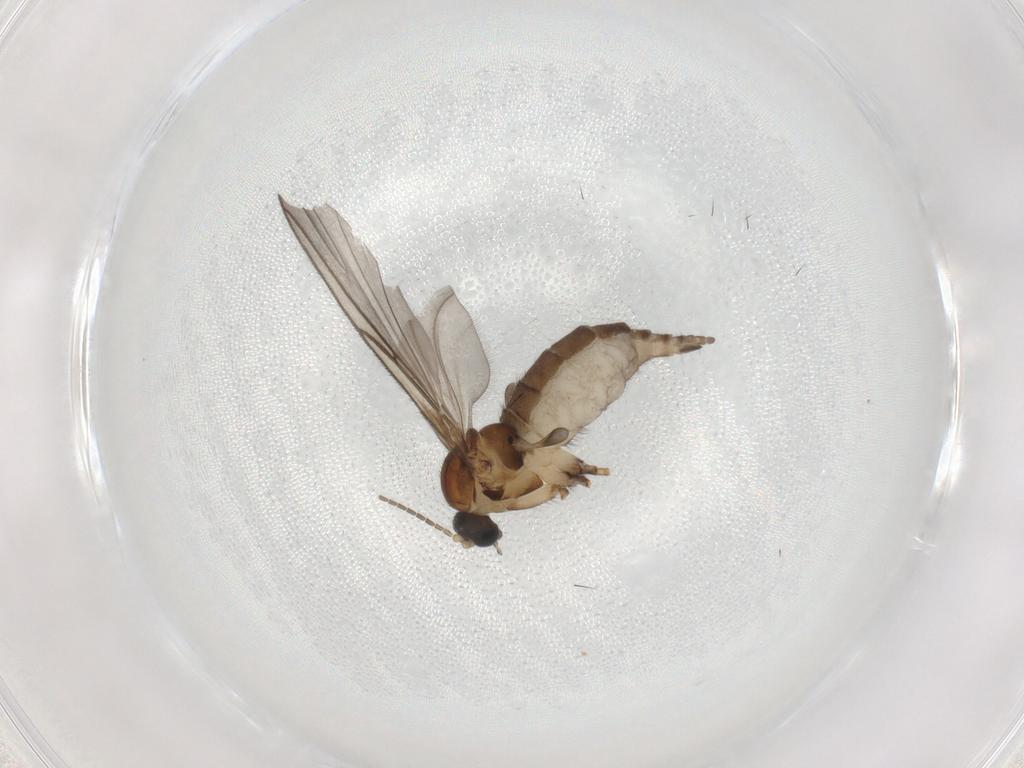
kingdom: Animalia
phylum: Arthropoda
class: Insecta
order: Diptera
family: Sciaridae
